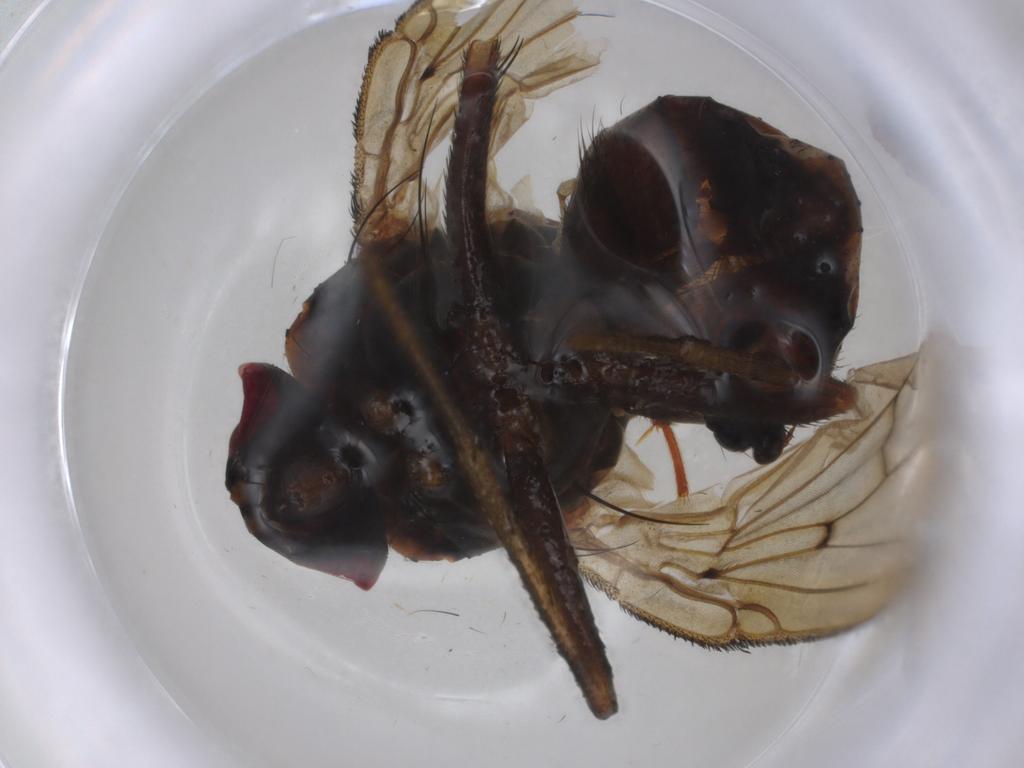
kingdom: Animalia
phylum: Arthropoda
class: Insecta
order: Diptera
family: Muscidae
